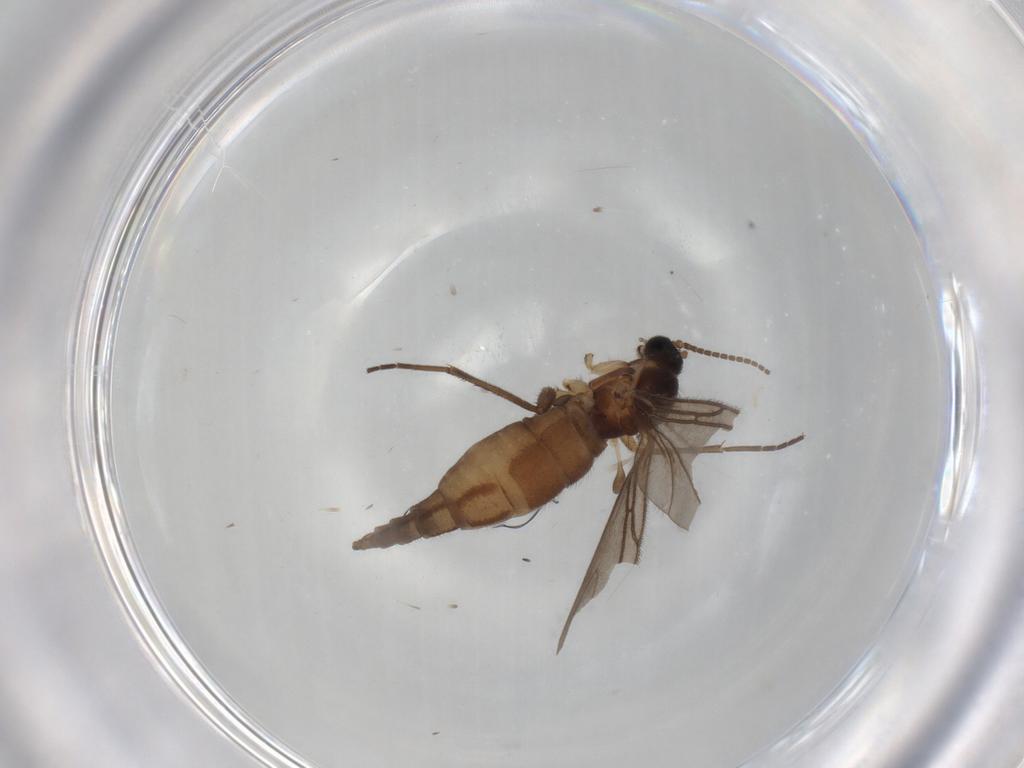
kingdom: Animalia
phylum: Arthropoda
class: Insecta
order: Diptera
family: Sciaridae
